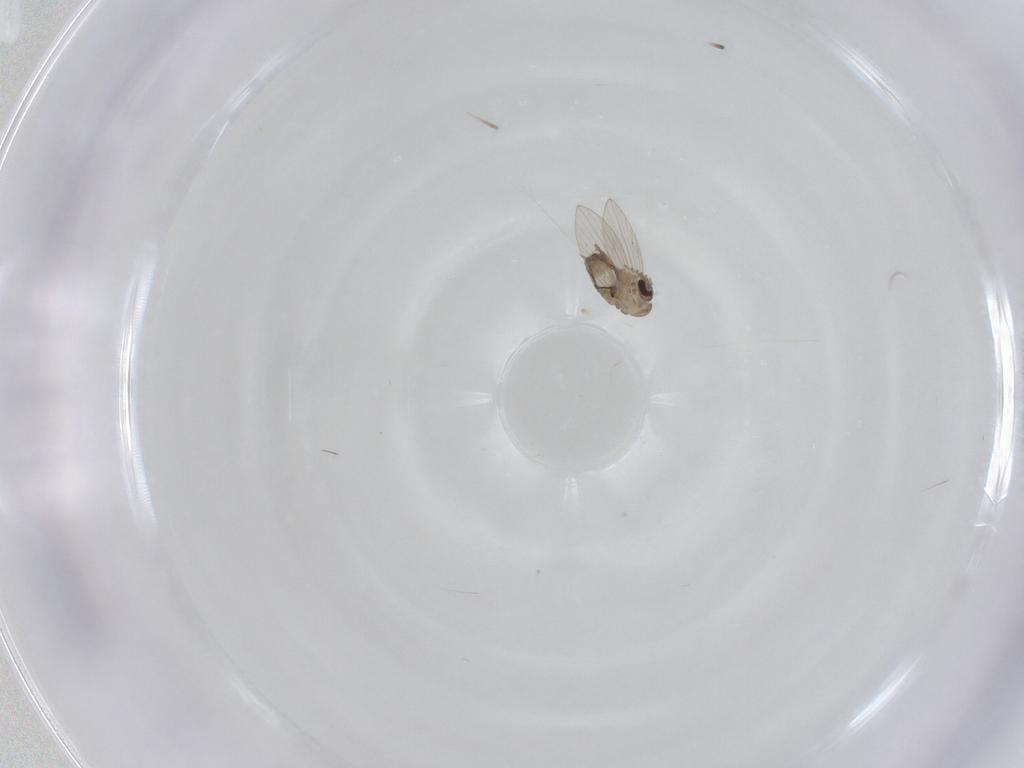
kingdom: Animalia
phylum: Arthropoda
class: Insecta
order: Diptera
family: Psychodidae
